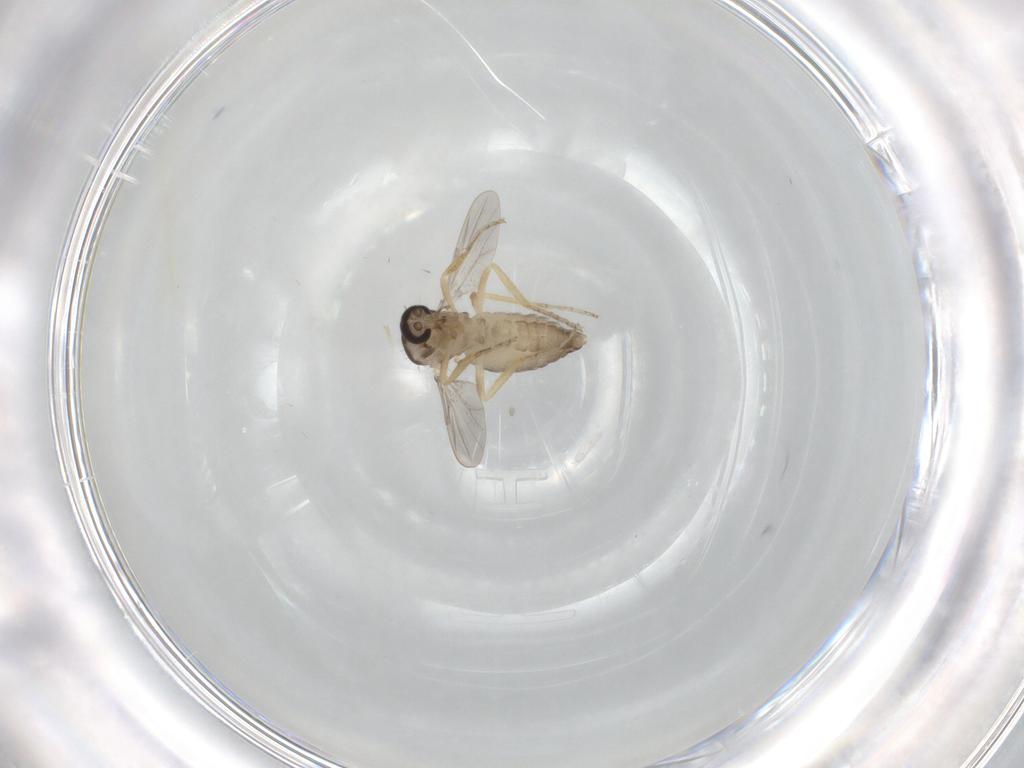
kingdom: Animalia
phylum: Arthropoda
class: Insecta
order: Diptera
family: Ceratopogonidae
